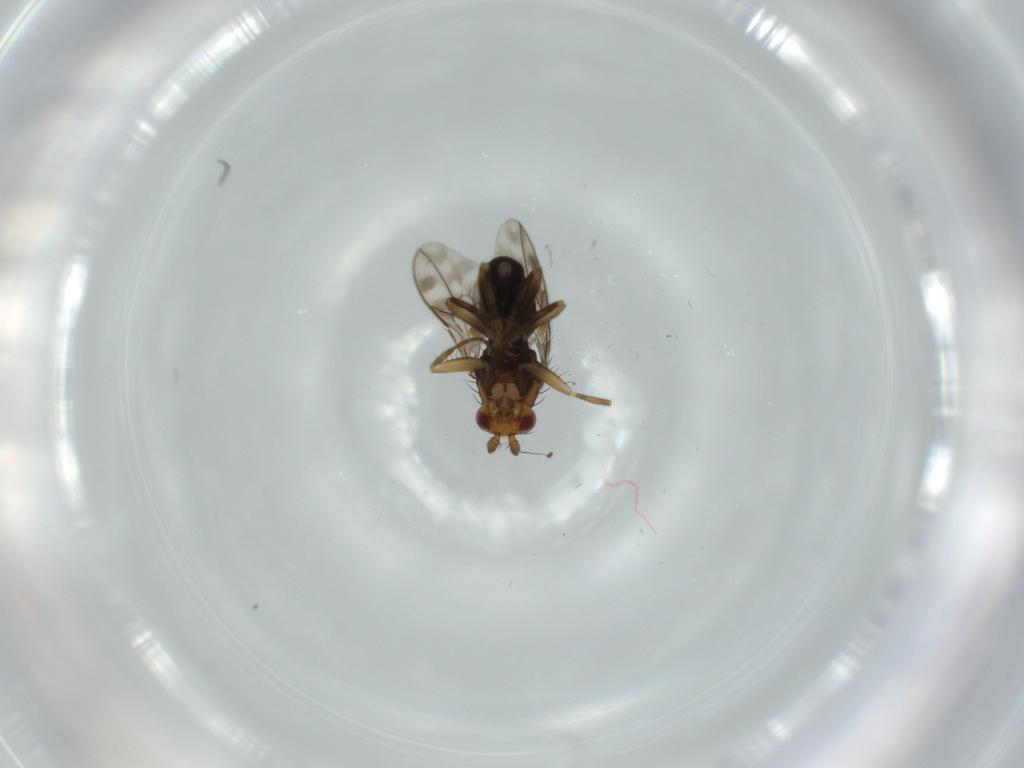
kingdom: Animalia
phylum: Arthropoda
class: Insecta
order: Diptera
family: Sphaeroceridae
